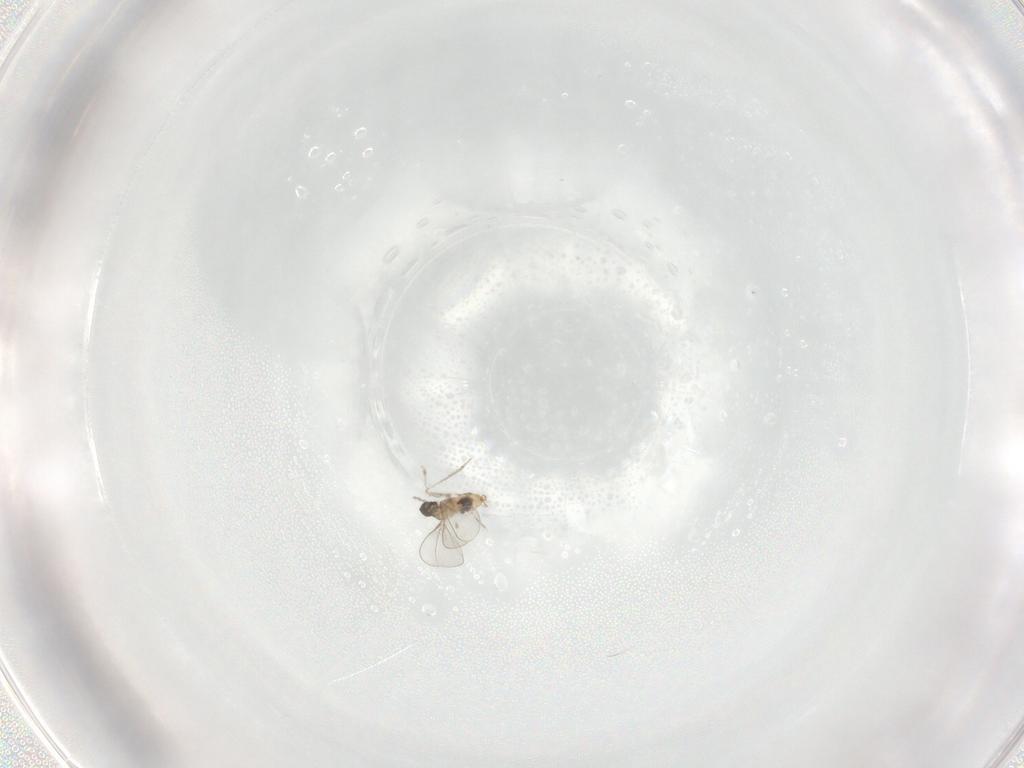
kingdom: Animalia
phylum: Arthropoda
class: Insecta
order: Diptera
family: Cecidomyiidae
